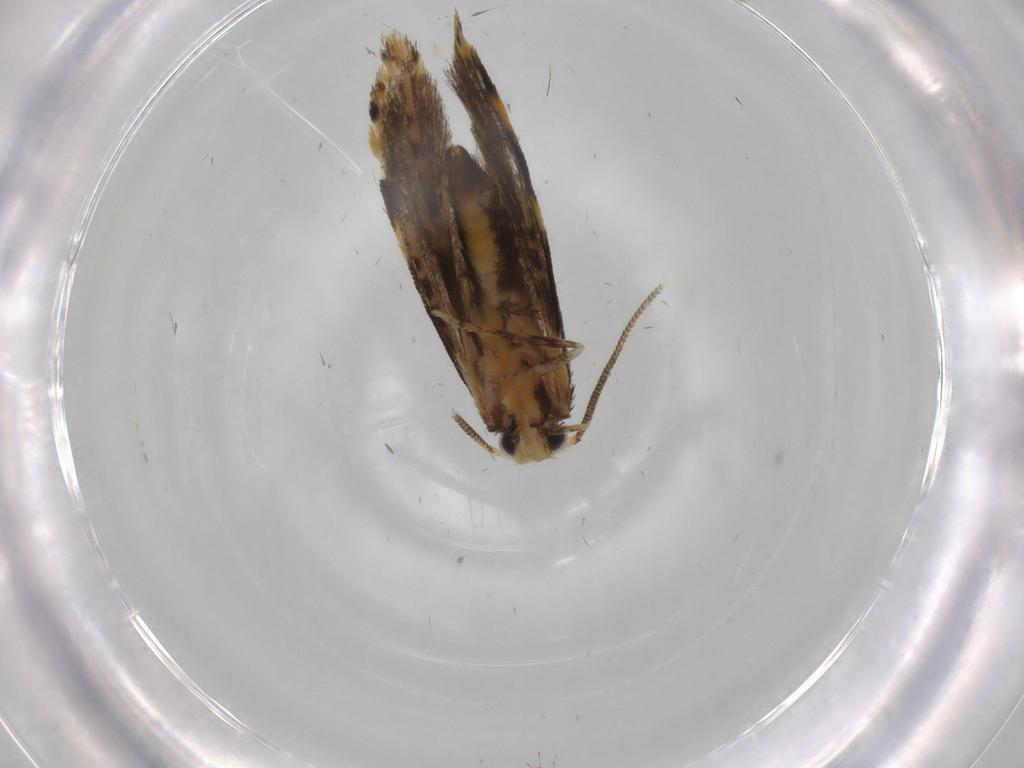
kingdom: Animalia
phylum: Arthropoda
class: Insecta
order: Lepidoptera
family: Tineidae
